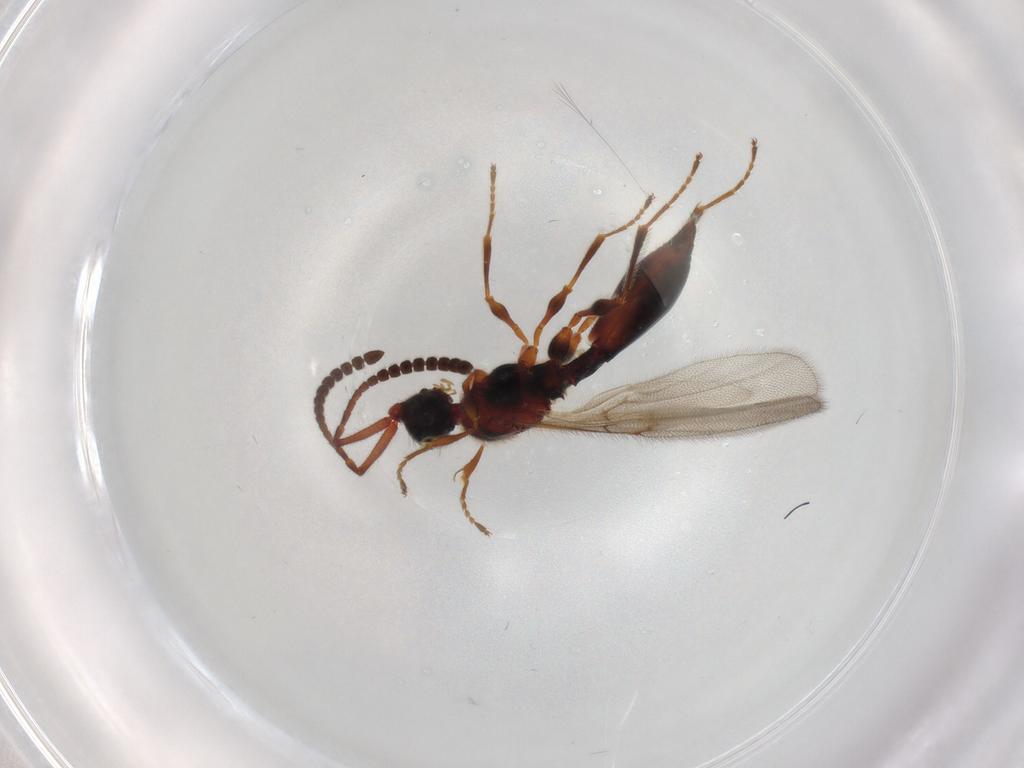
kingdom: Animalia
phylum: Arthropoda
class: Insecta
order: Hymenoptera
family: Diapriidae
